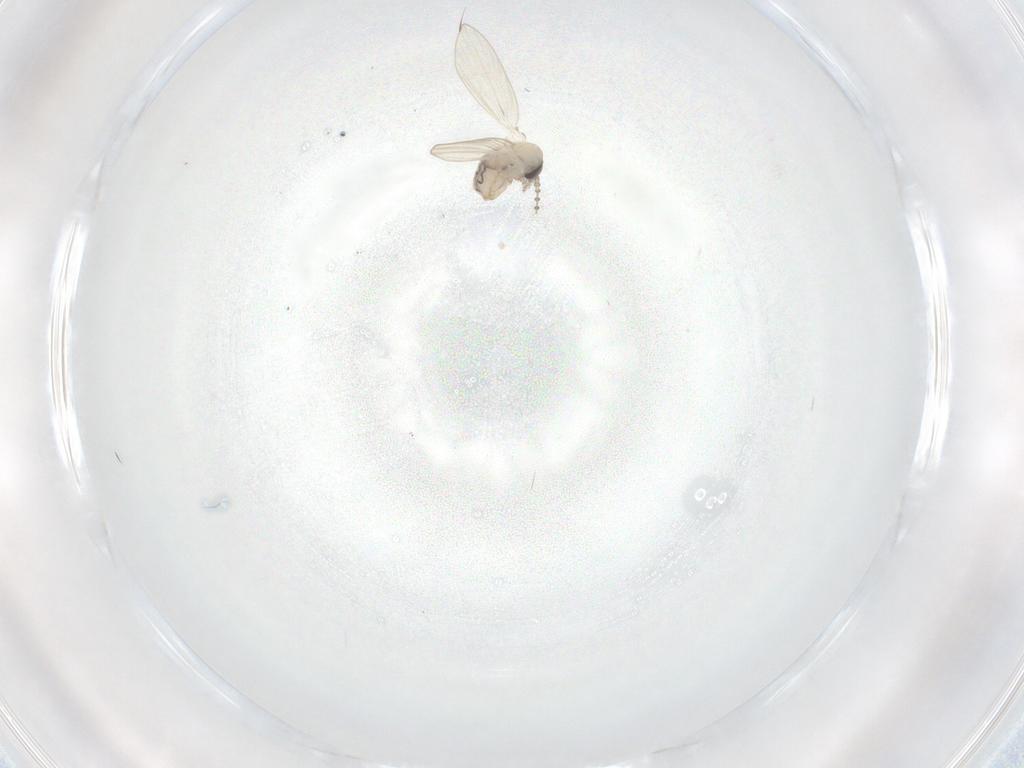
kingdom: Animalia
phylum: Arthropoda
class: Insecta
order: Diptera
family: Psychodidae
